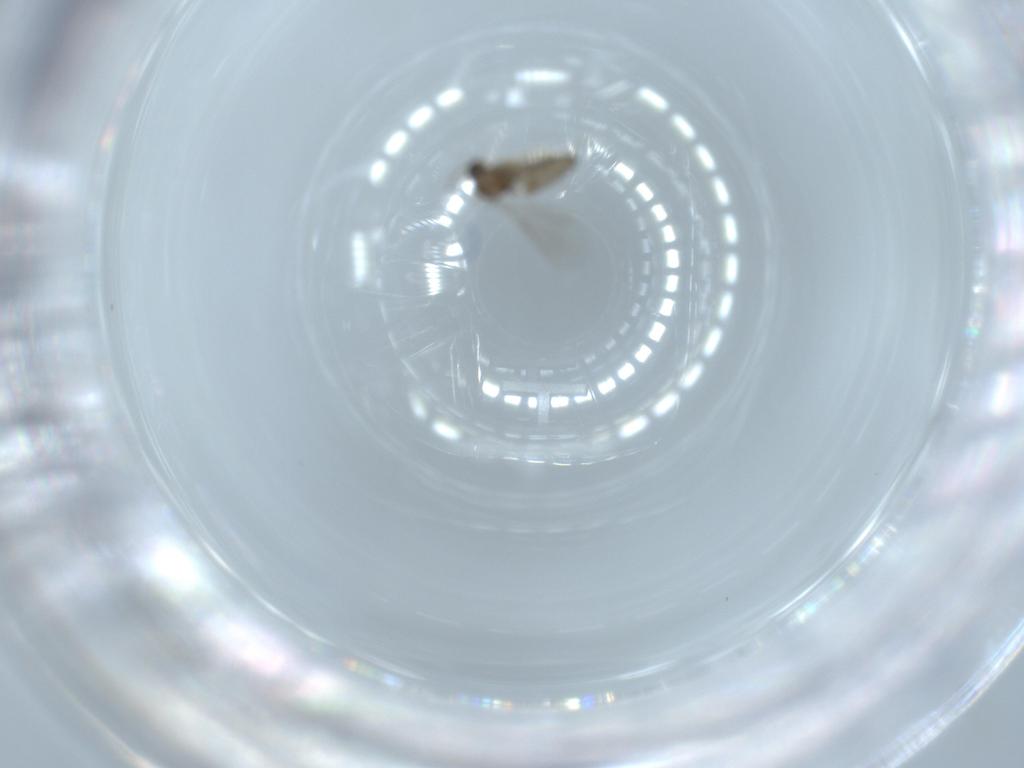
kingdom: Animalia
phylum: Arthropoda
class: Insecta
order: Diptera
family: Cecidomyiidae
